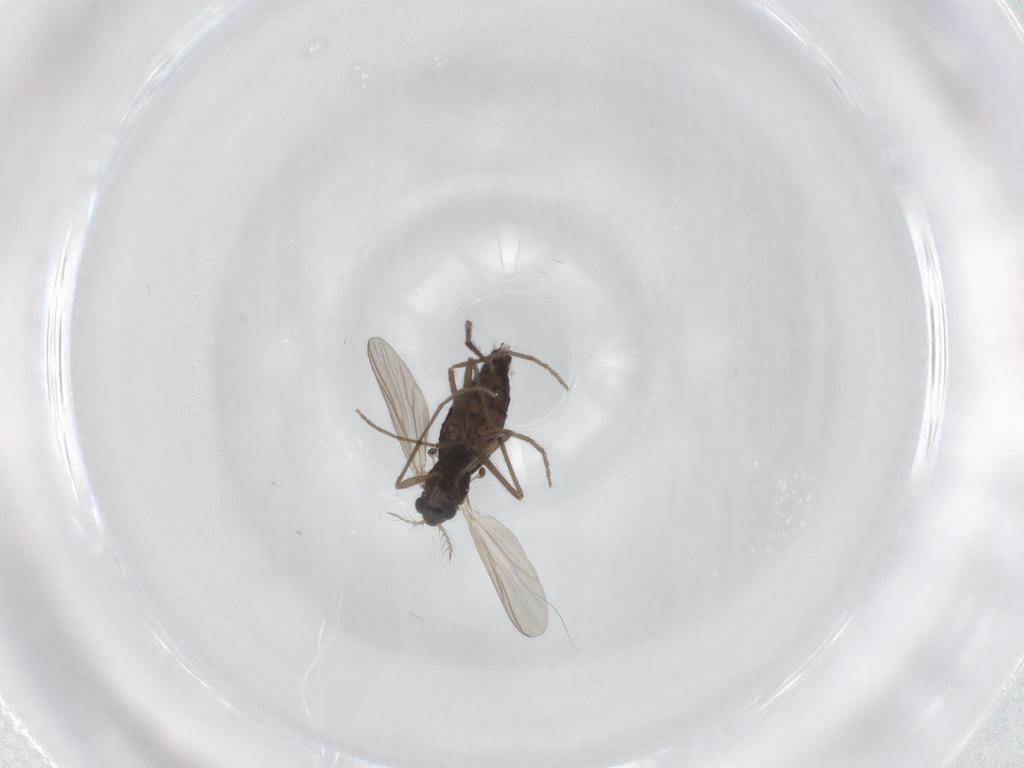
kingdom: Animalia
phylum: Arthropoda
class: Insecta
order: Diptera
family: Chironomidae
